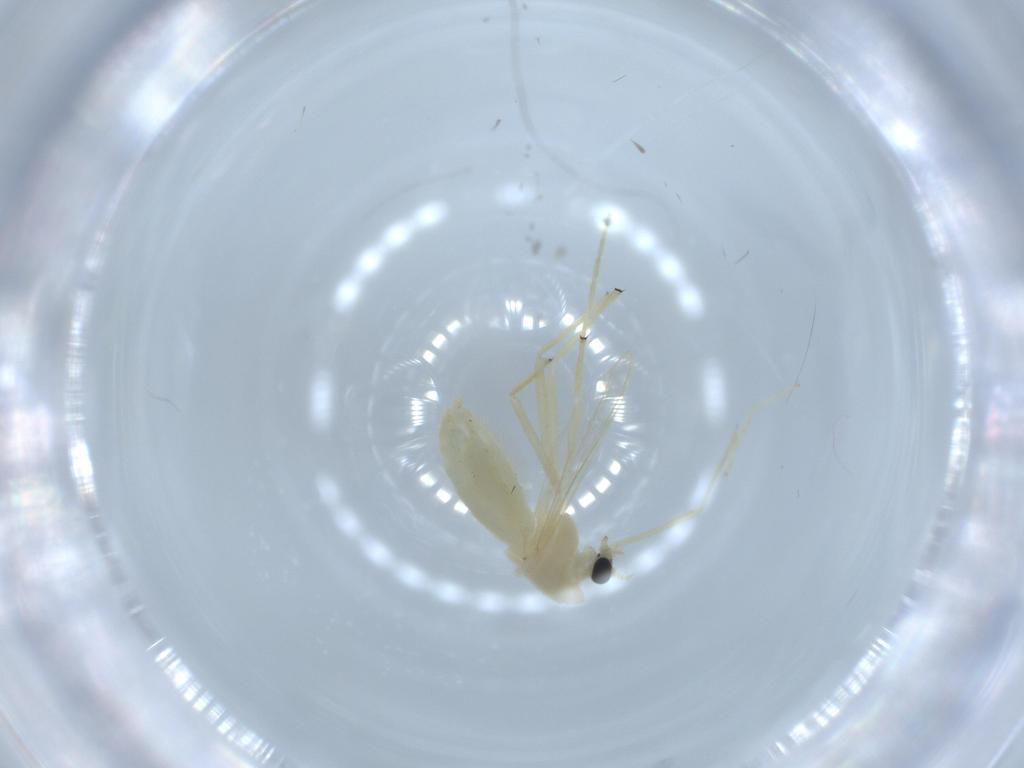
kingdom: Animalia
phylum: Arthropoda
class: Insecta
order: Diptera
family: Chironomidae
